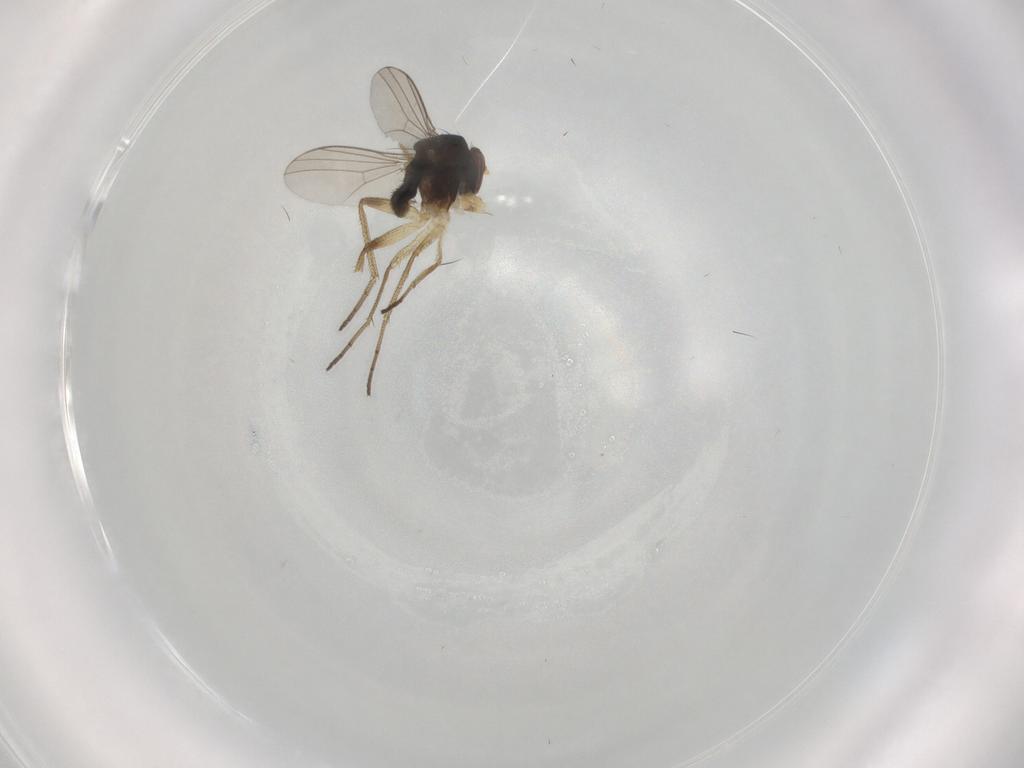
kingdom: Animalia
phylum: Arthropoda
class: Insecta
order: Diptera
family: Dolichopodidae
